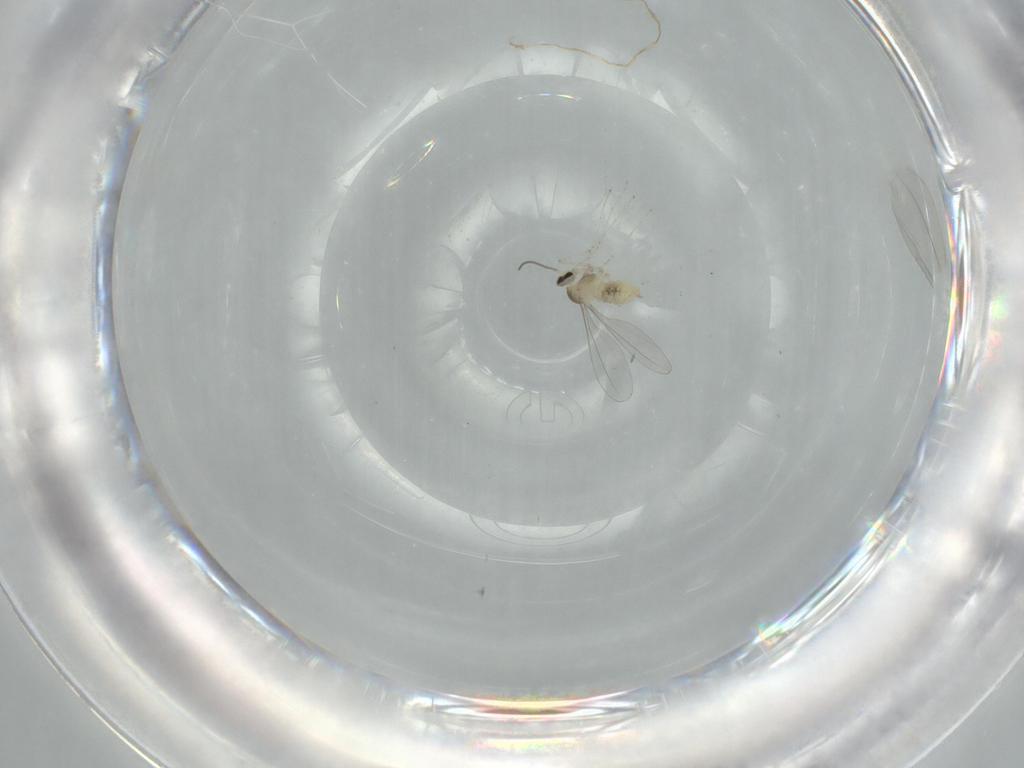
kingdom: Animalia
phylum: Arthropoda
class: Insecta
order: Diptera
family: Cecidomyiidae
